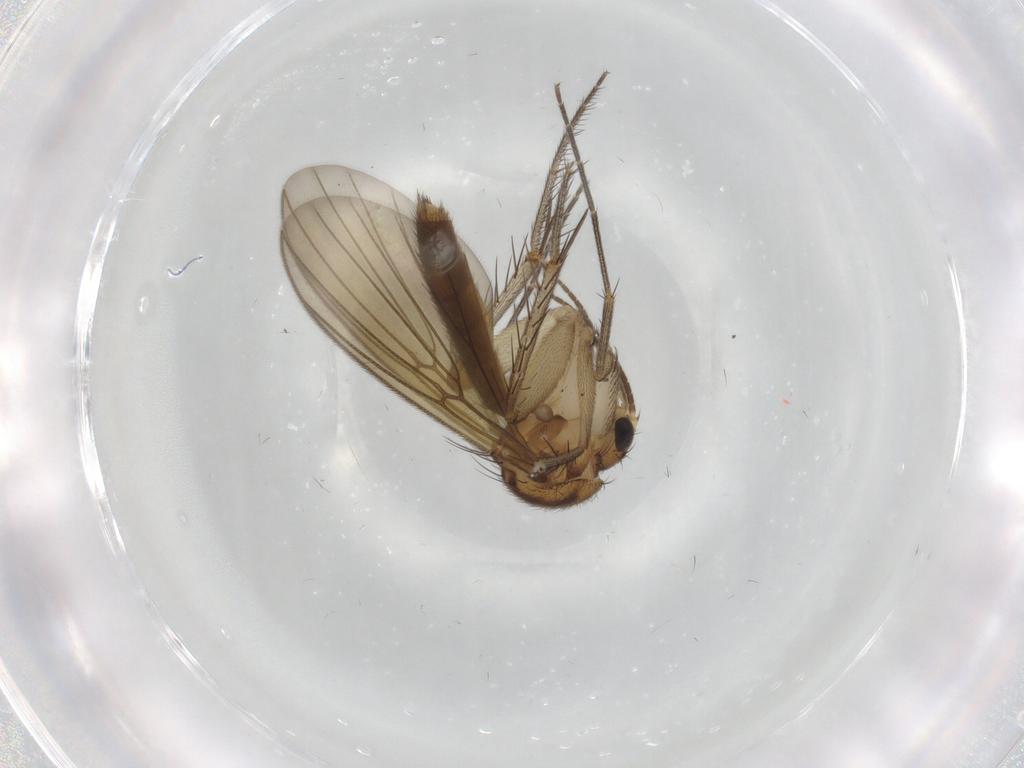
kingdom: Animalia
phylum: Arthropoda
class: Insecta
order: Diptera
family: Mycetophilidae
